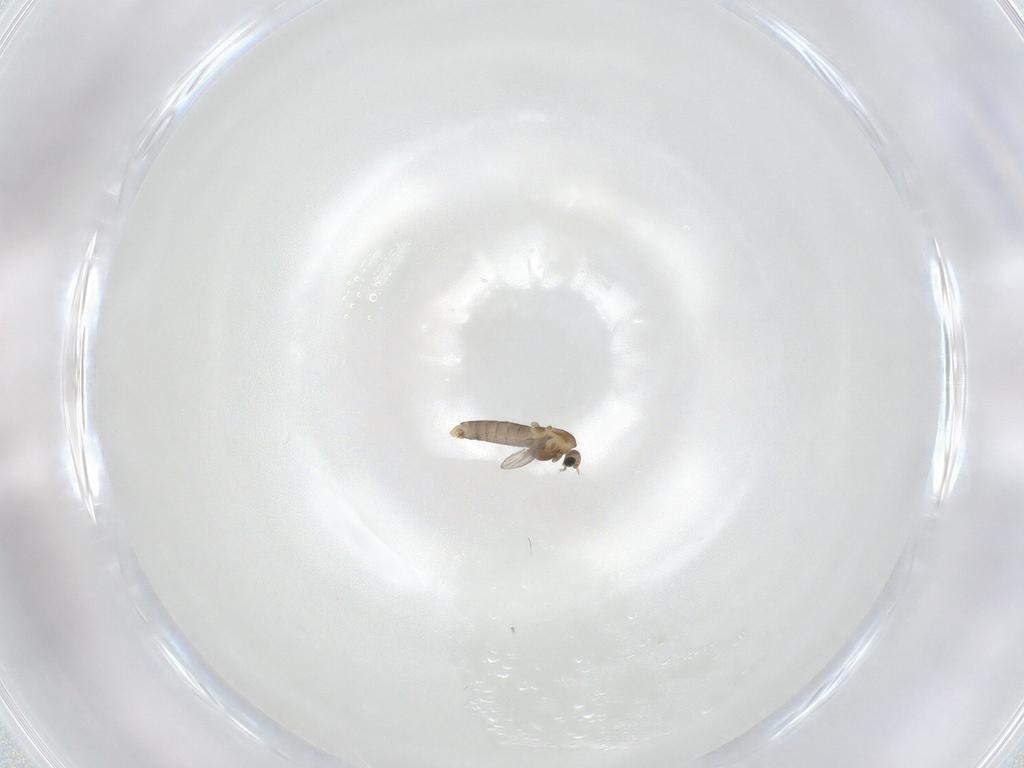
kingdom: Animalia
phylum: Arthropoda
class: Insecta
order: Diptera
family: Chironomidae
